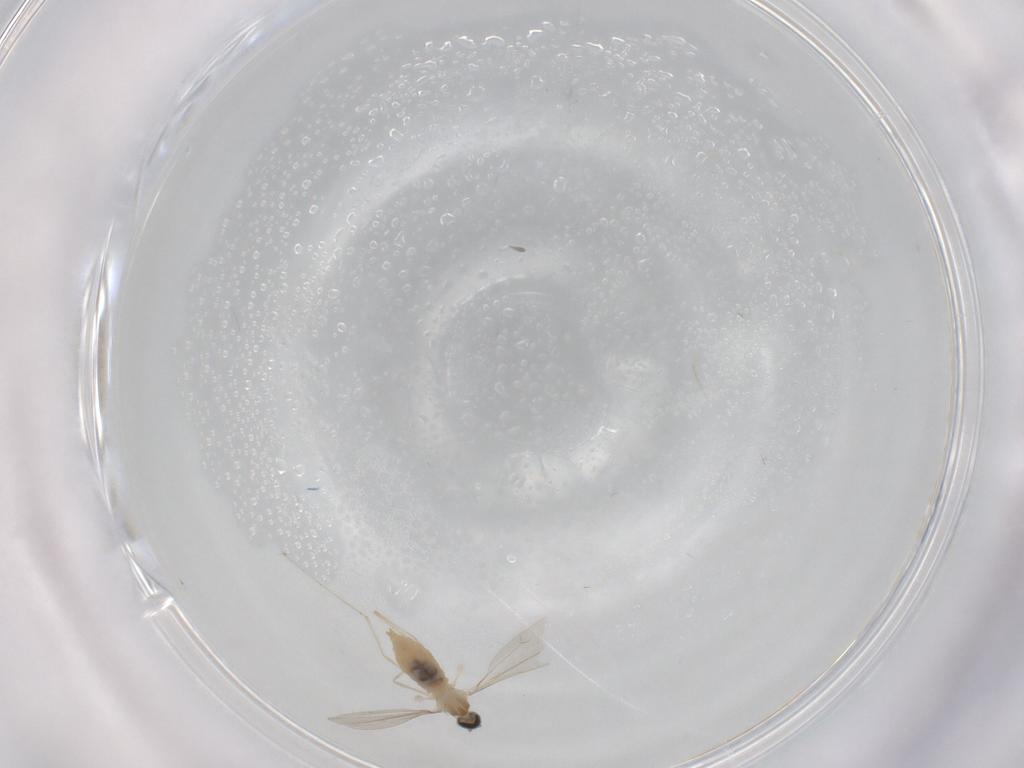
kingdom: Animalia
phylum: Arthropoda
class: Insecta
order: Diptera
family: Cecidomyiidae
